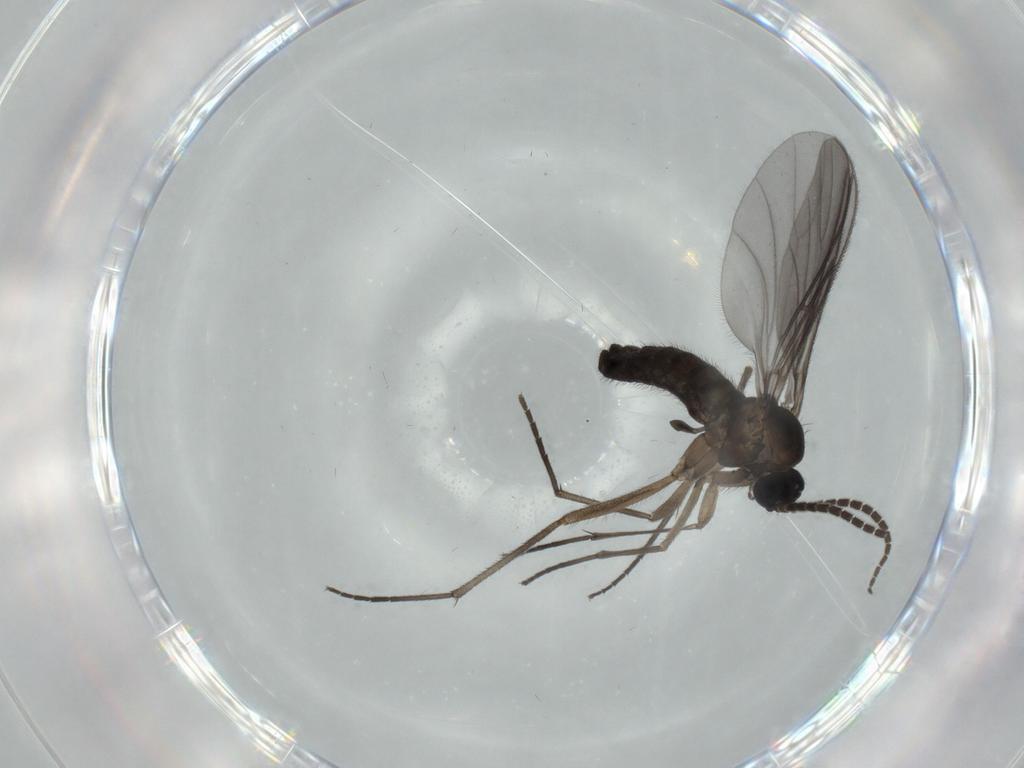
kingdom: Animalia
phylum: Arthropoda
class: Insecta
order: Diptera
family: Sciaridae
